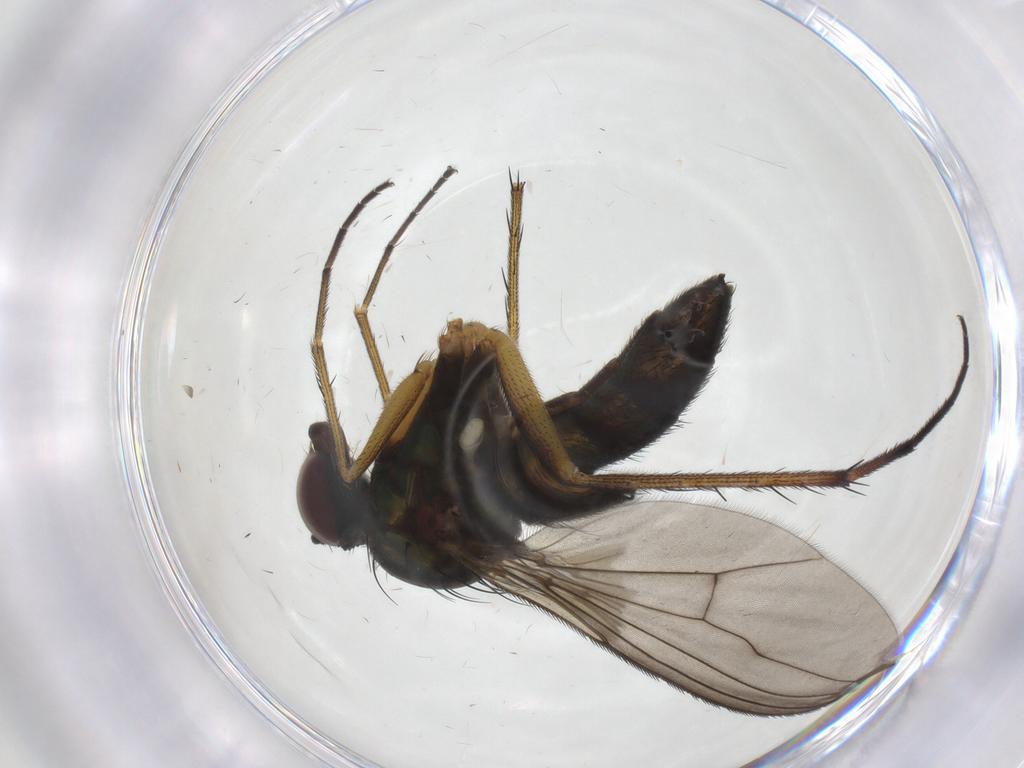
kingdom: Animalia
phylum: Arthropoda
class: Insecta
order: Diptera
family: Dolichopodidae
